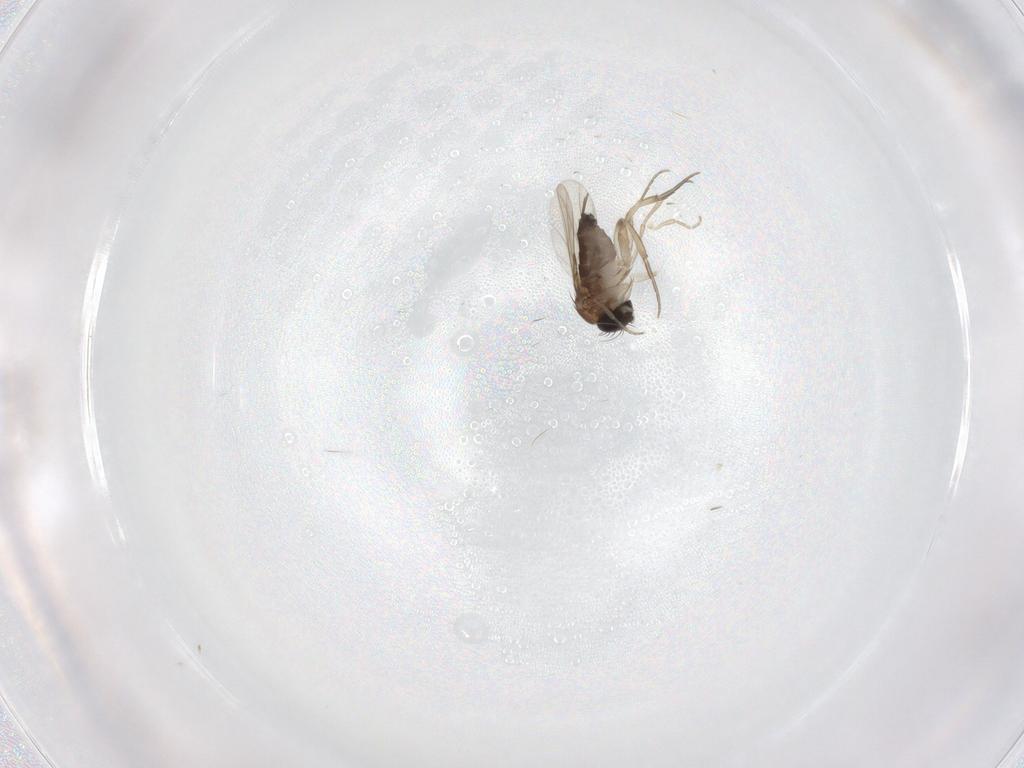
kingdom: Animalia
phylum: Arthropoda
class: Insecta
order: Diptera
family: Phoridae
